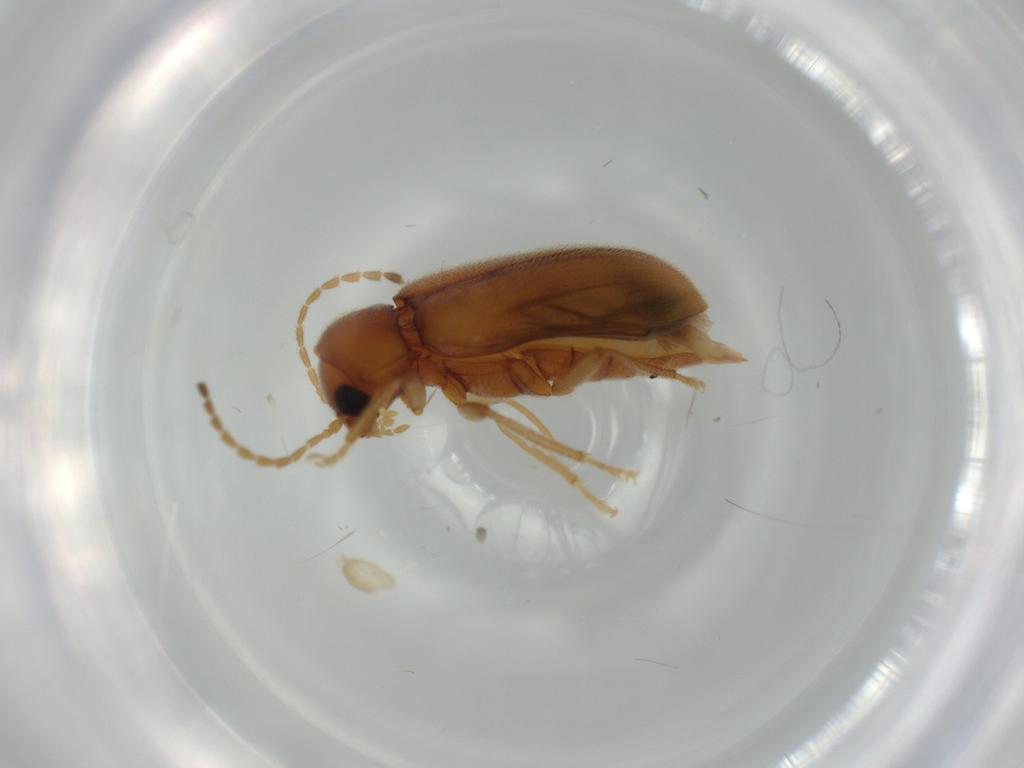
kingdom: Animalia
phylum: Arthropoda
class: Insecta
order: Coleoptera
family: Ptilodactylidae
